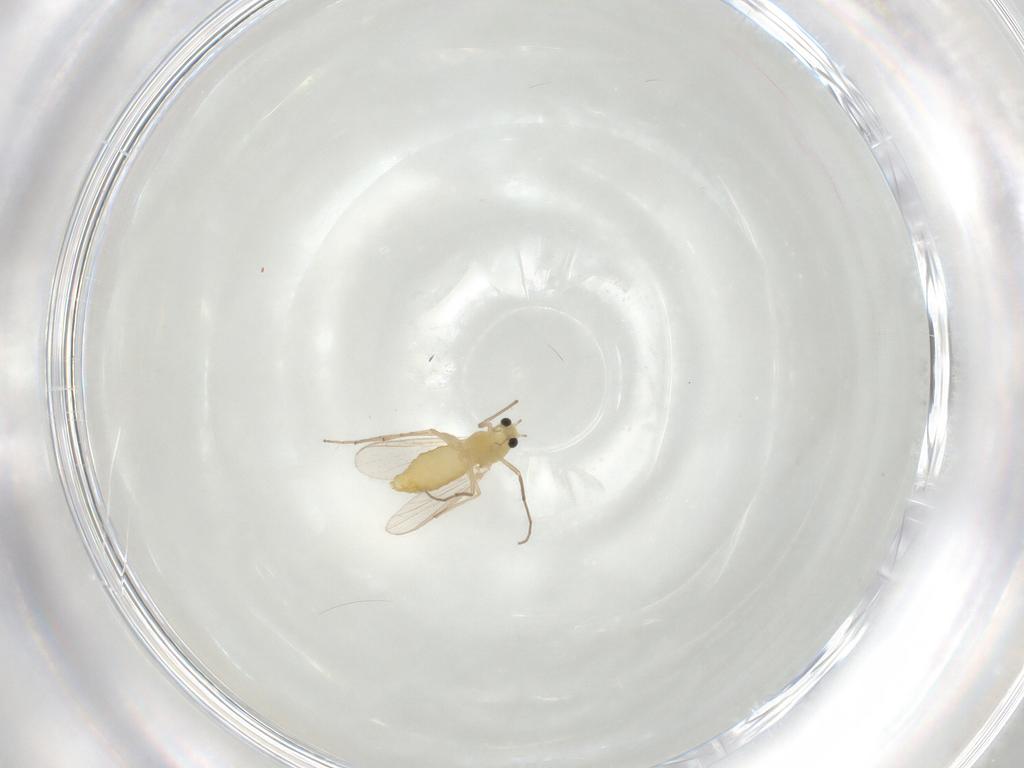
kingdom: Animalia
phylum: Arthropoda
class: Insecta
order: Diptera
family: Chironomidae
